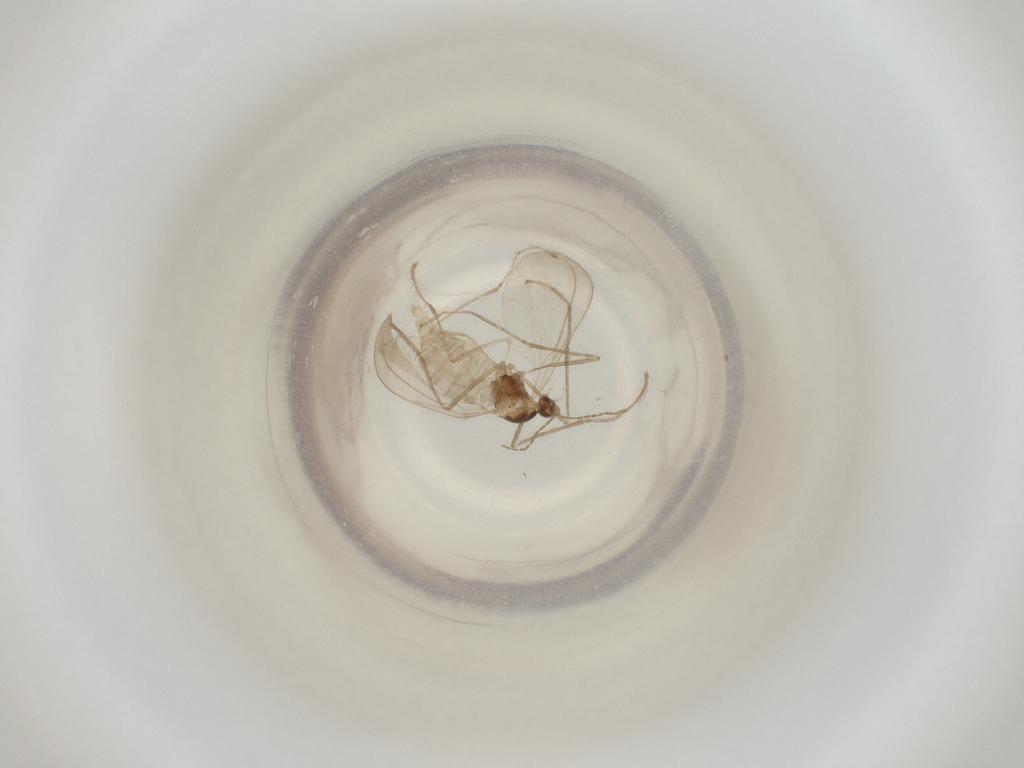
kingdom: Animalia
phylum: Arthropoda
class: Insecta
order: Diptera
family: Cecidomyiidae
